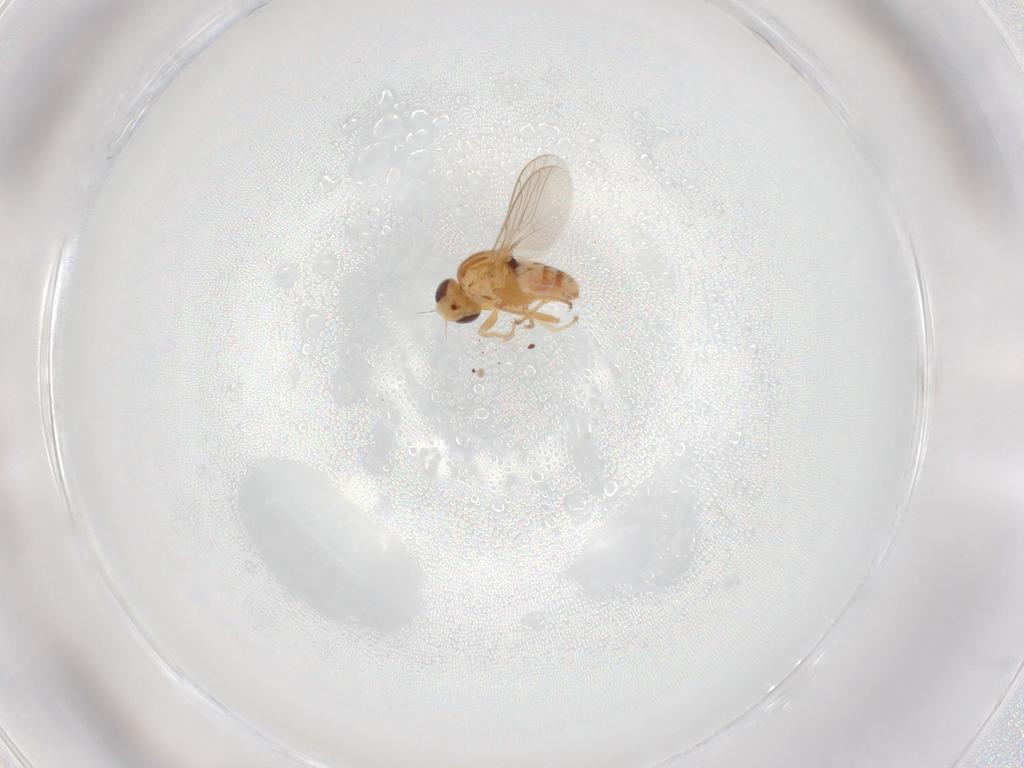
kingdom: Animalia
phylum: Arthropoda
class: Insecta
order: Diptera
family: Chloropidae
